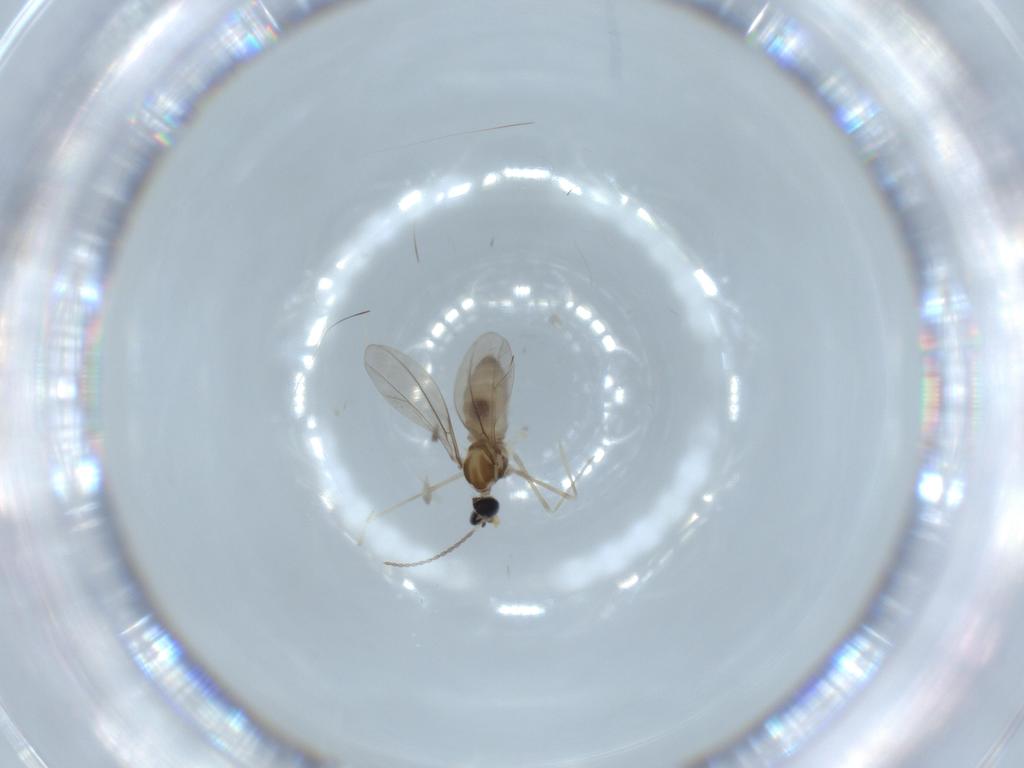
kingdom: Animalia
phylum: Arthropoda
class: Insecta
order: Diptera
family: Cecidomyiidae
